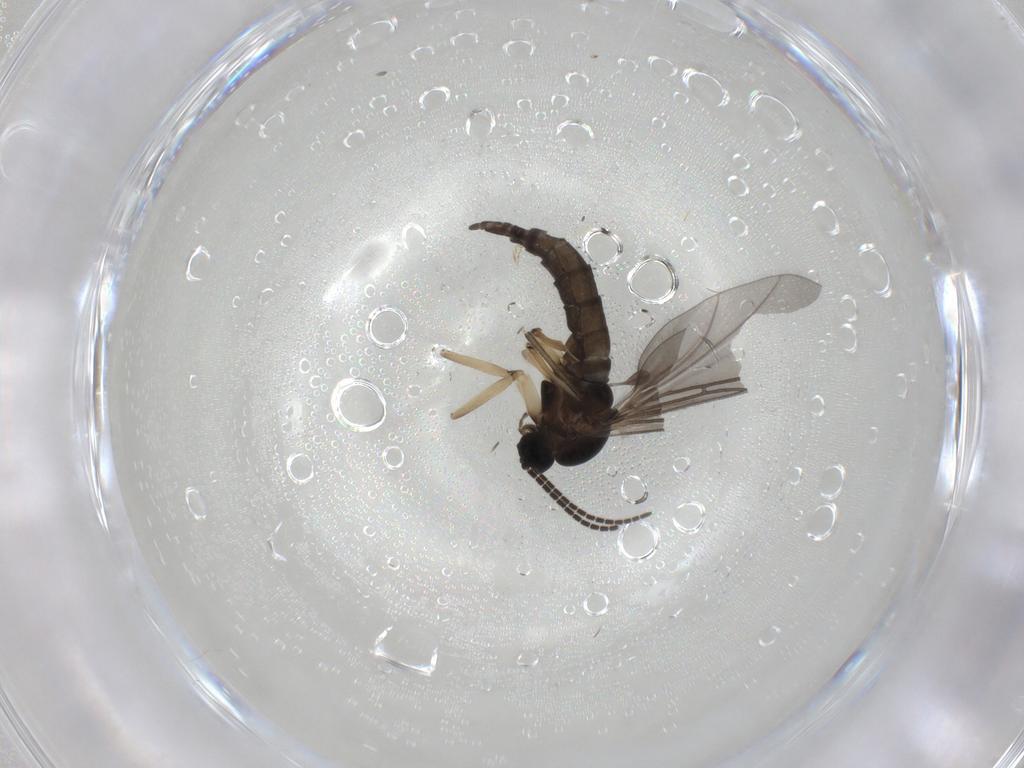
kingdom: Animalia
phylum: Arthropoda
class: Insecta
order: Diptera
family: Sciaridae
